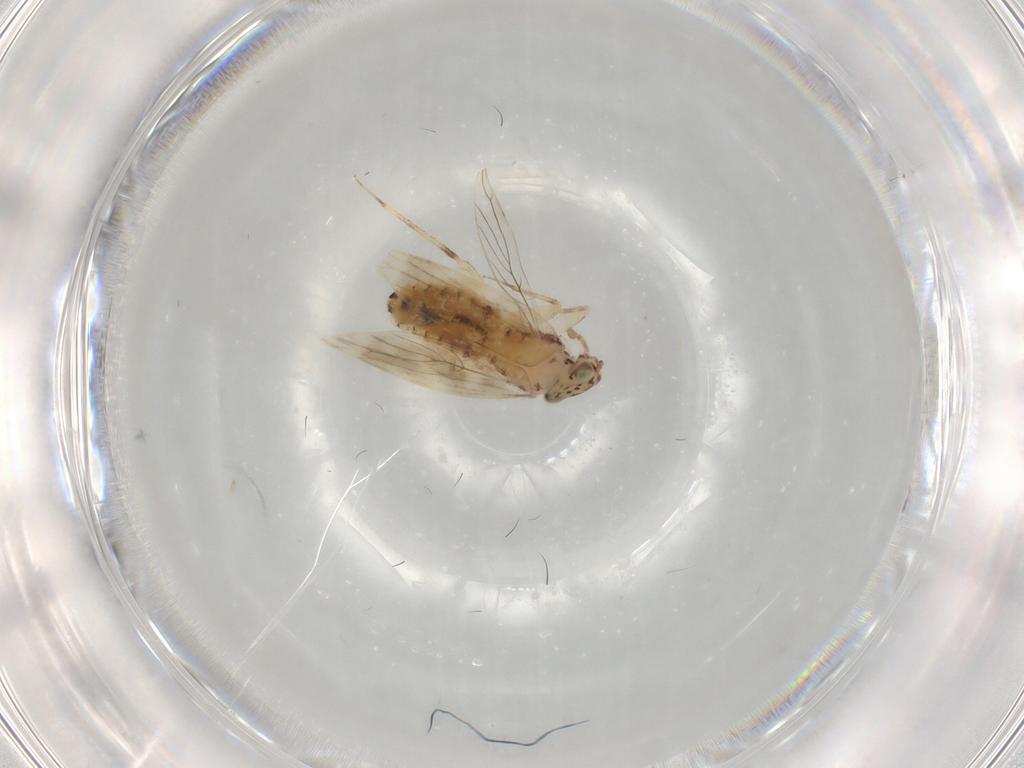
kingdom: Animalia
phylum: Arthropoda
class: Insecta
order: Psocodea
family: Lepidopsocidae
